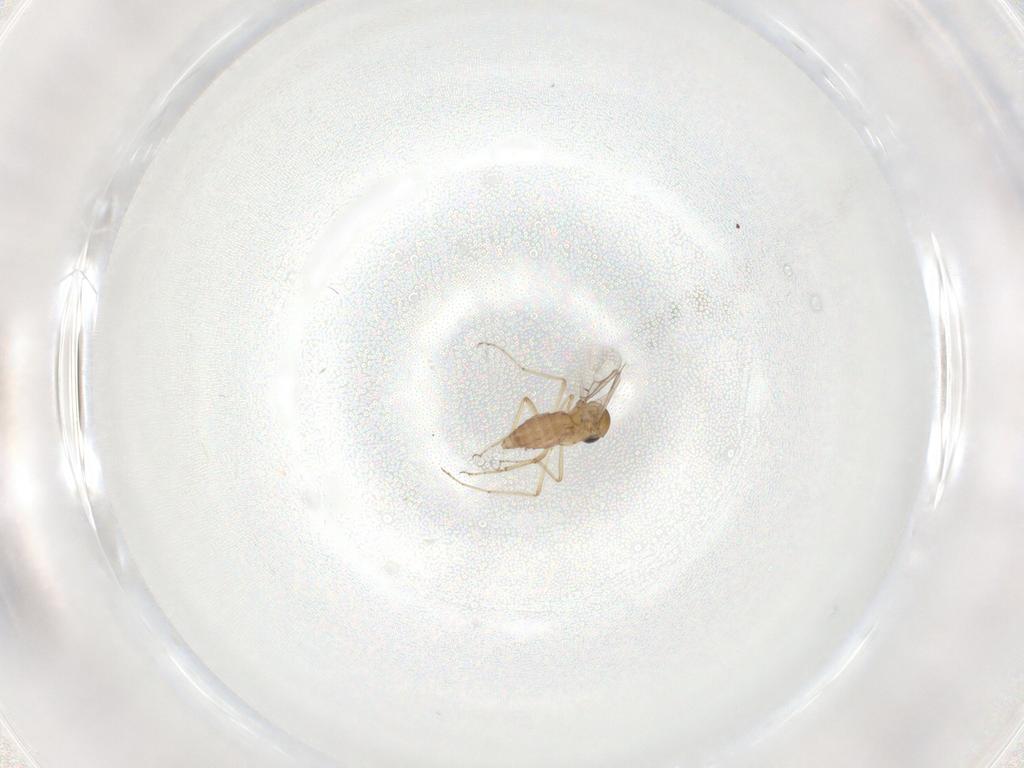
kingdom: Animalia
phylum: Arthropoda
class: Insecta
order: Diptera
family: Ceratopogonidae
